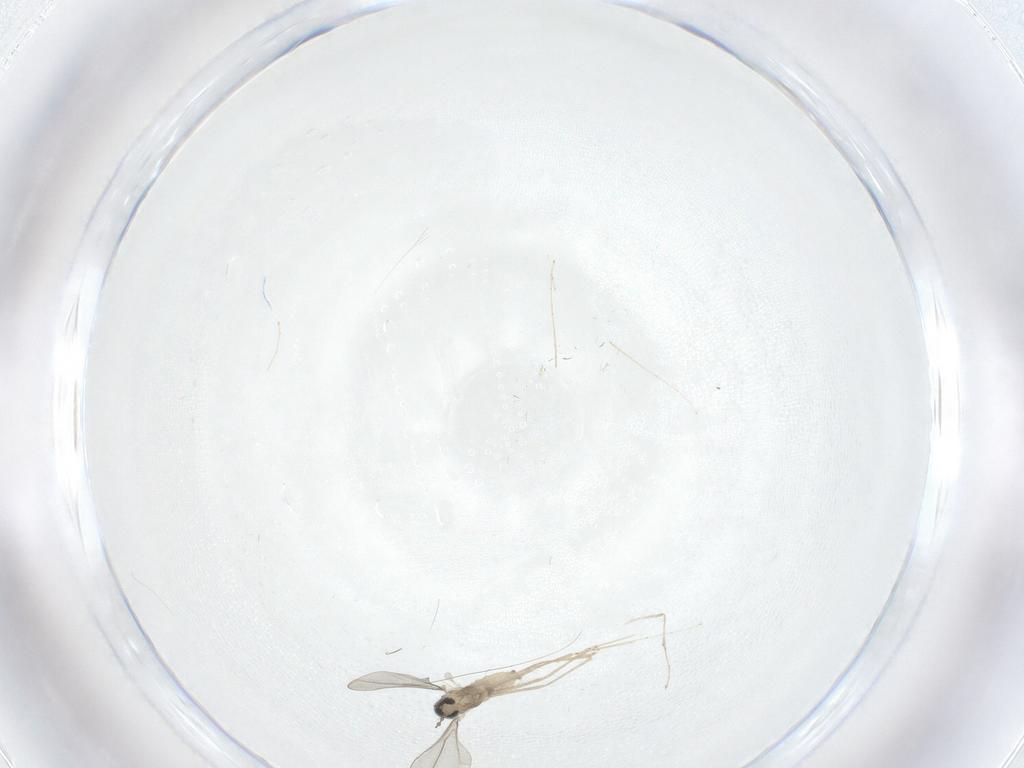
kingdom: Animalia
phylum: Arthropoda
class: Insecta
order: Diptera
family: Cecidomyiidae
